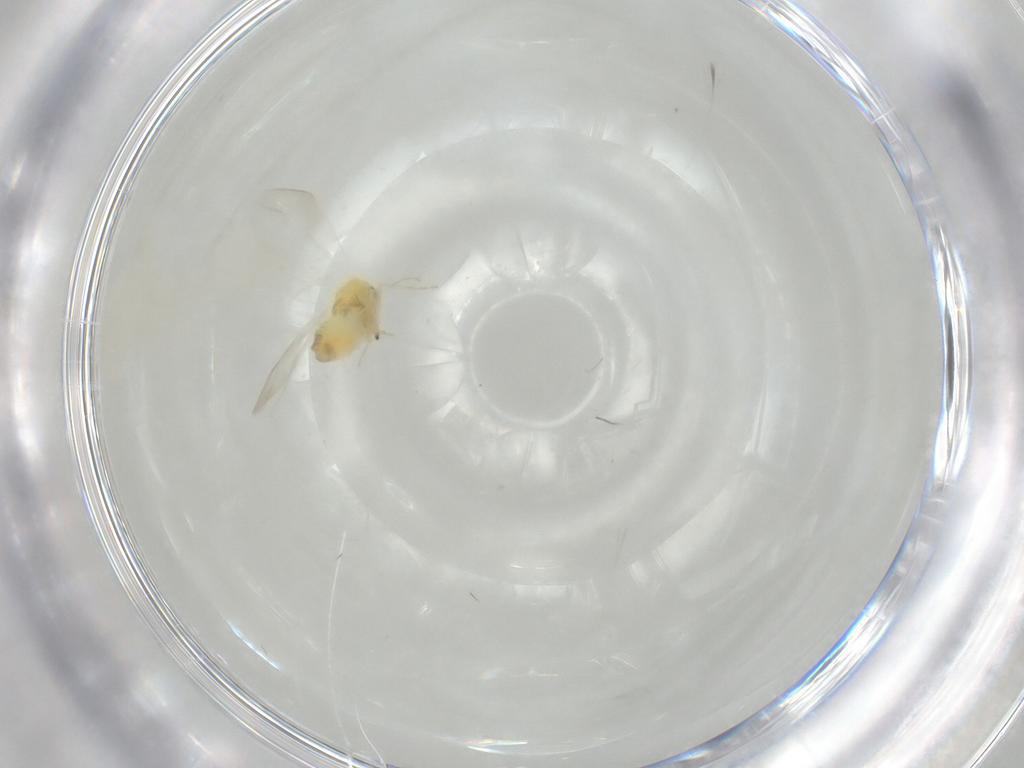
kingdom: Animalia
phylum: Arthropoda
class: Insecta
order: Hemiptera
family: Aleyrodidae
